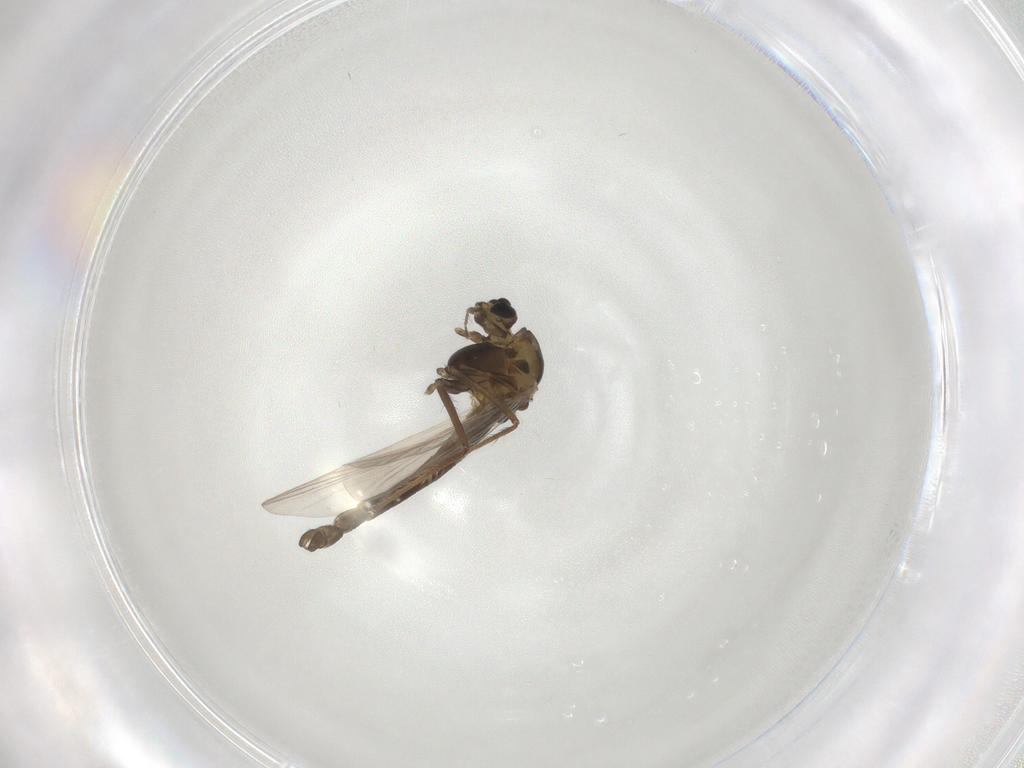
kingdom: Animalia
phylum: Arthropoda
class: Insecta
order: Diptera
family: Chironomidae
